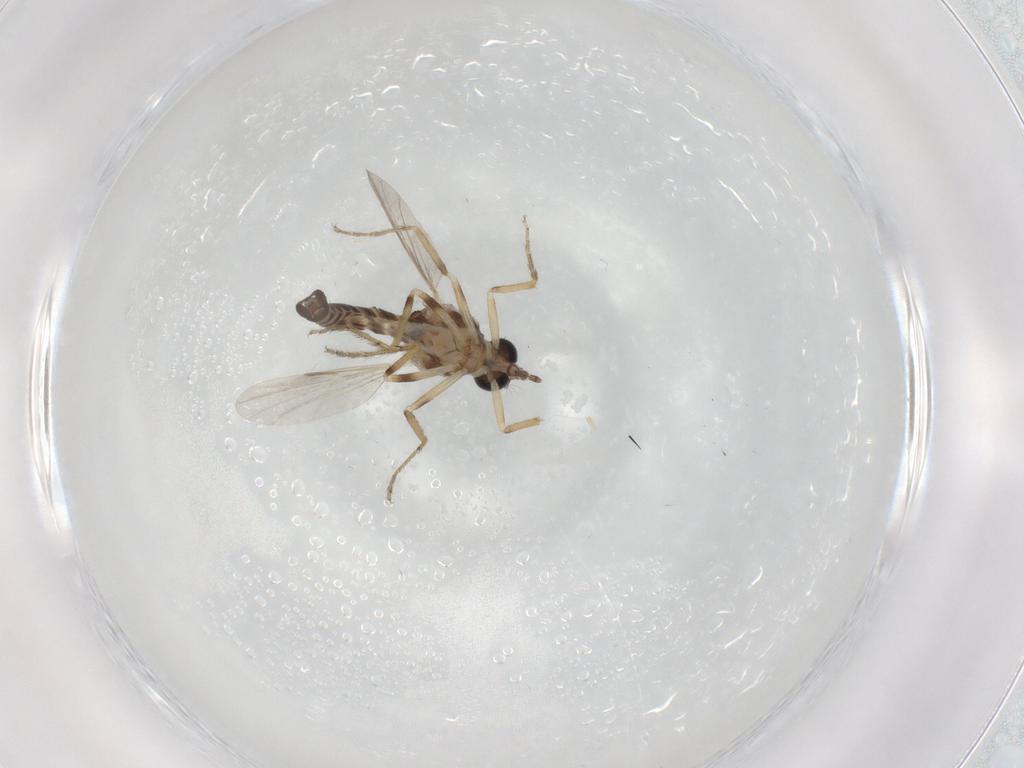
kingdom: Animalia
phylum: Arthropoda
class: Insecta
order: Diptera
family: Ceratopogonidae
